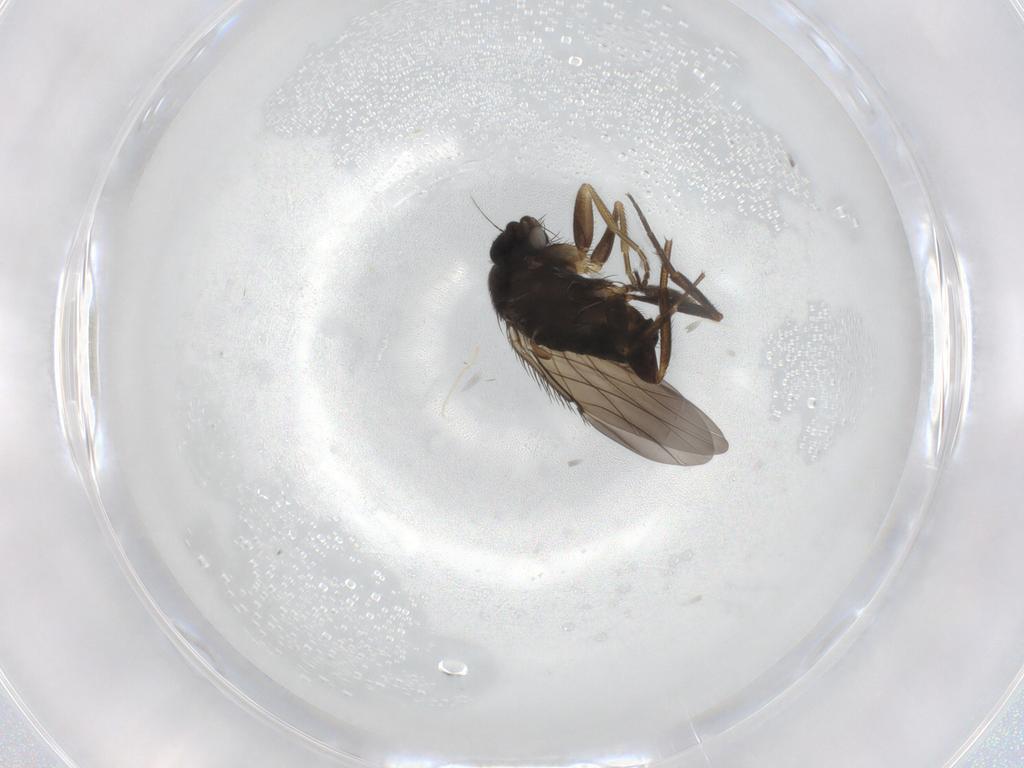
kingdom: Animalia
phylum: Arthropoda
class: Insecta
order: Diptera
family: Phoridae
